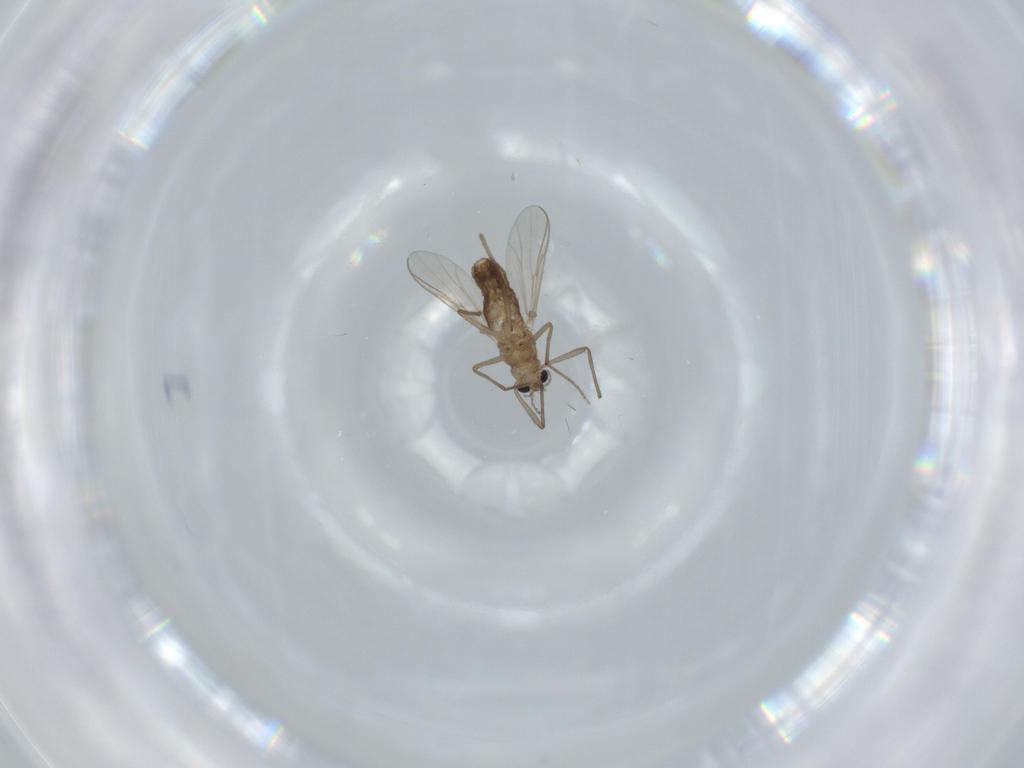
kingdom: Animalia
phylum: Arthropoda
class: Insecta
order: Diptera
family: Chironomidae
